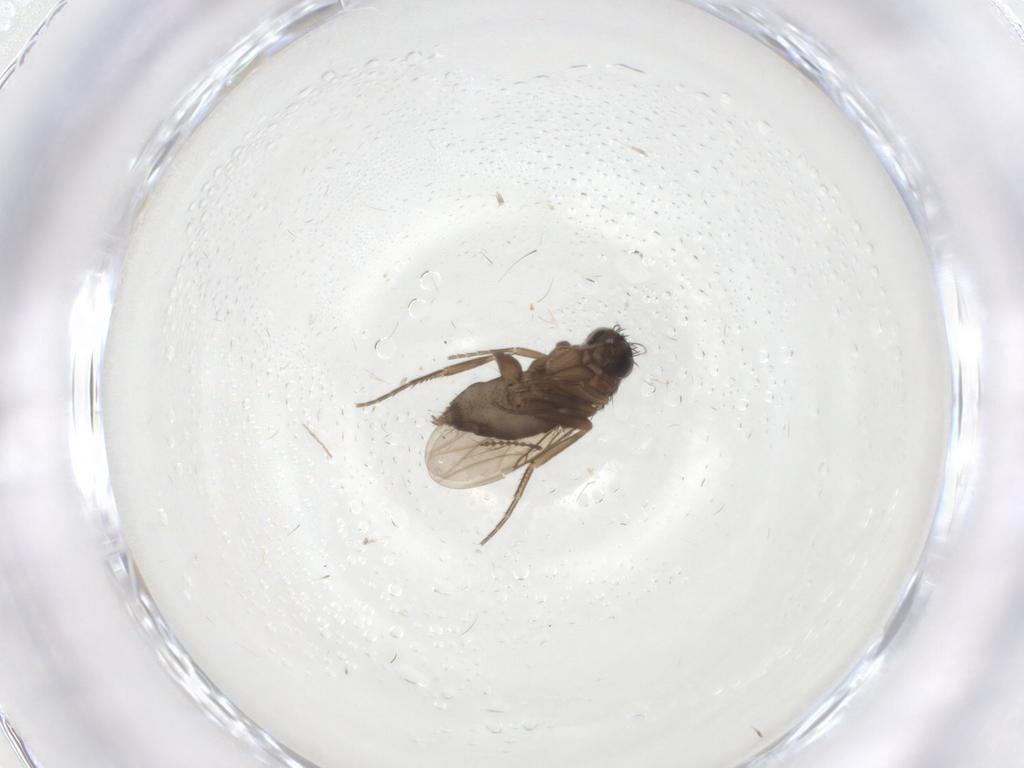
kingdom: Animalia
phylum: Arthropoda
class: Insecta
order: Diptera
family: Phoridae
